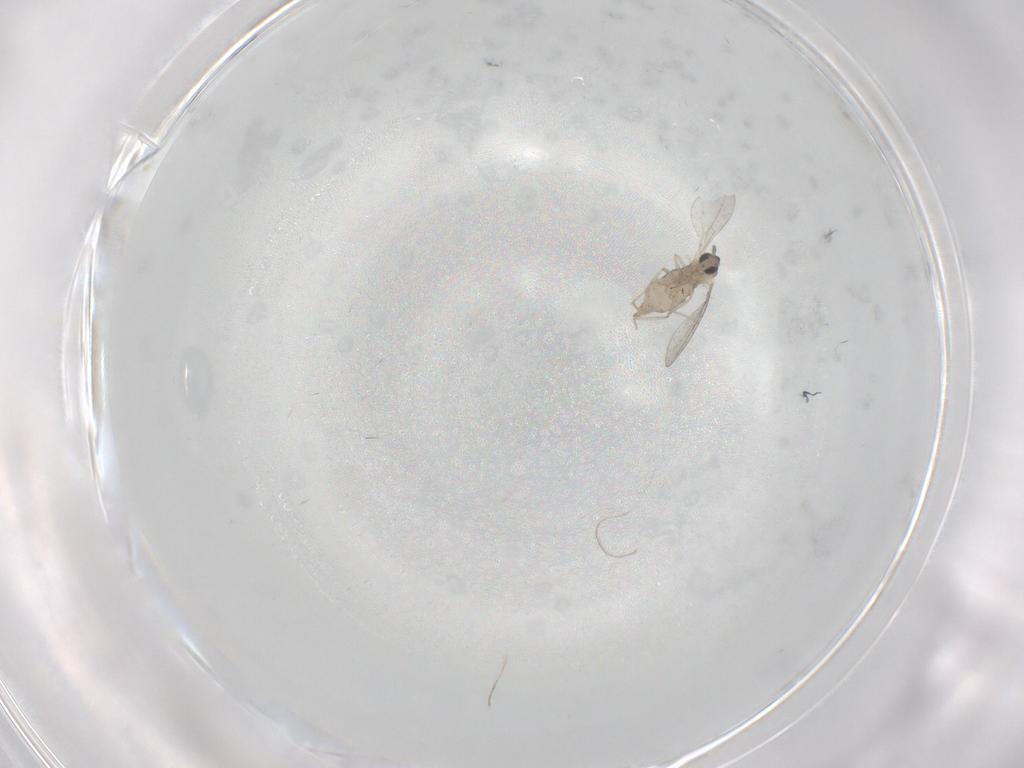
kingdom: Animalia
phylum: Arthropoda
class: Insecta
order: Diptera
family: Cecidomyiidae
